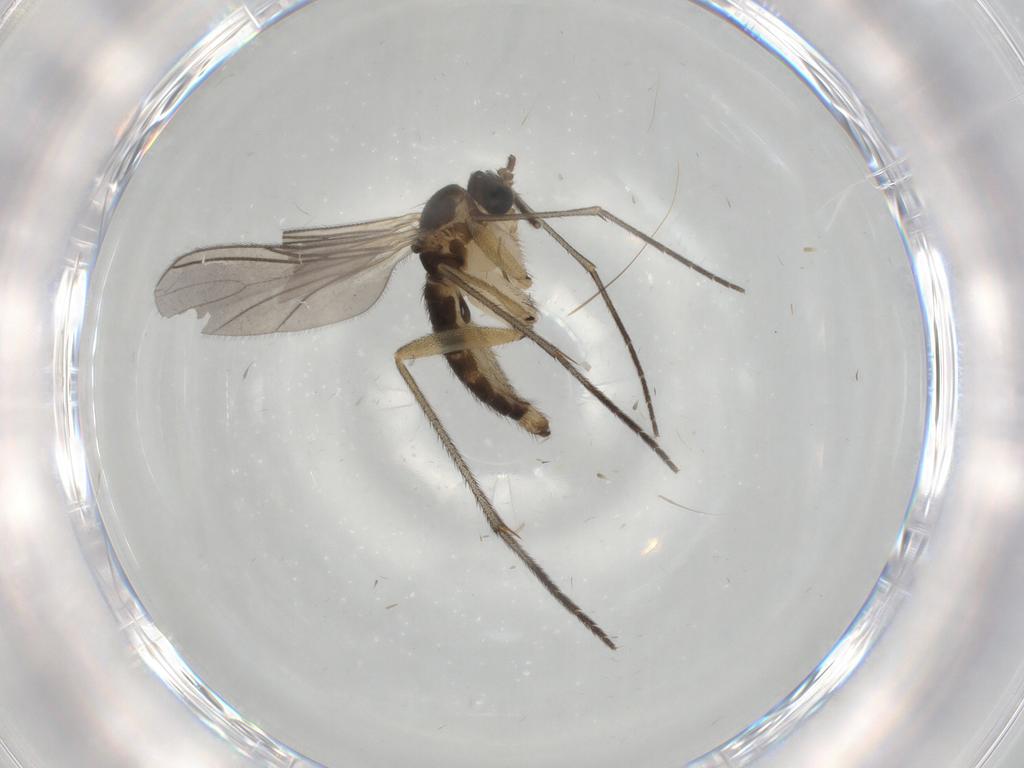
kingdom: Animalia
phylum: Arthropoda
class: Insecta
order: Diptera
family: Sciaridae
